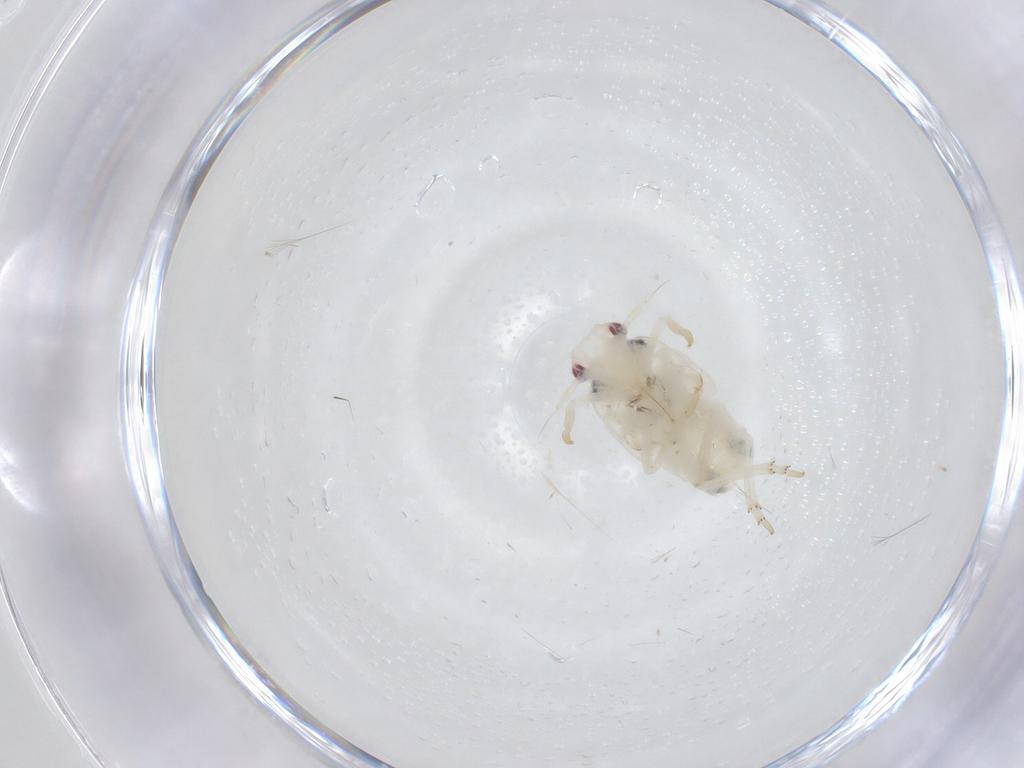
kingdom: Animalia
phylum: Arthropoda
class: Insecta
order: Hemiptera
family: Flatidae
